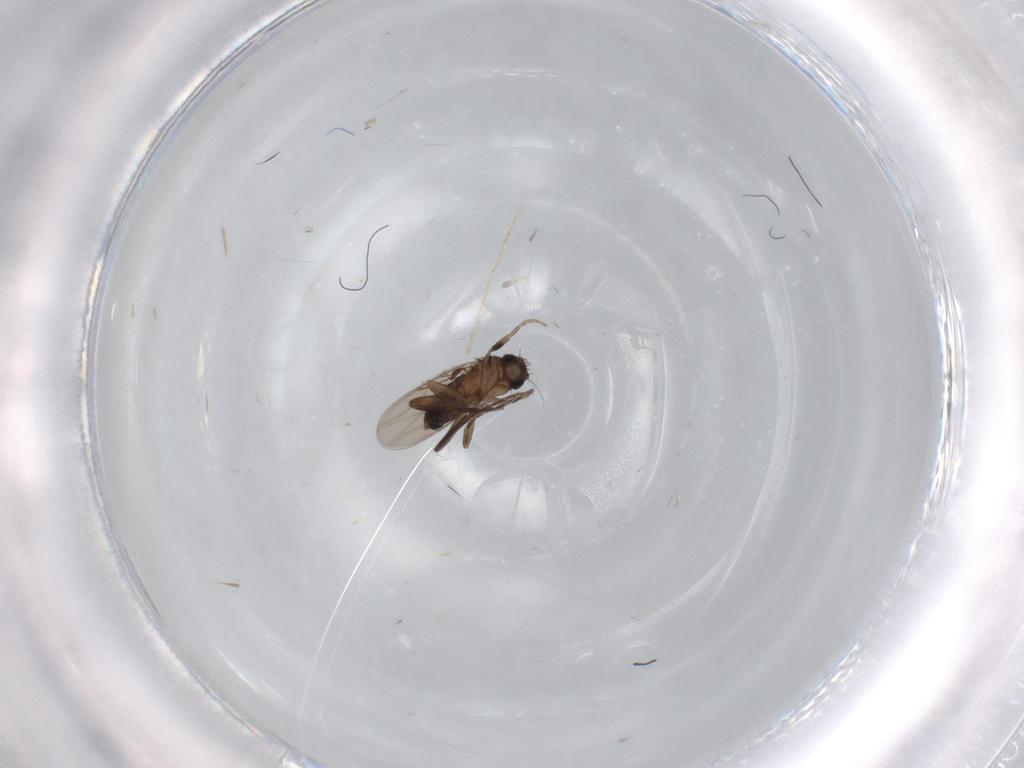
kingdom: Animalia
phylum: Arthropoda
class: Insecta
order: Diptera
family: Phoridae
